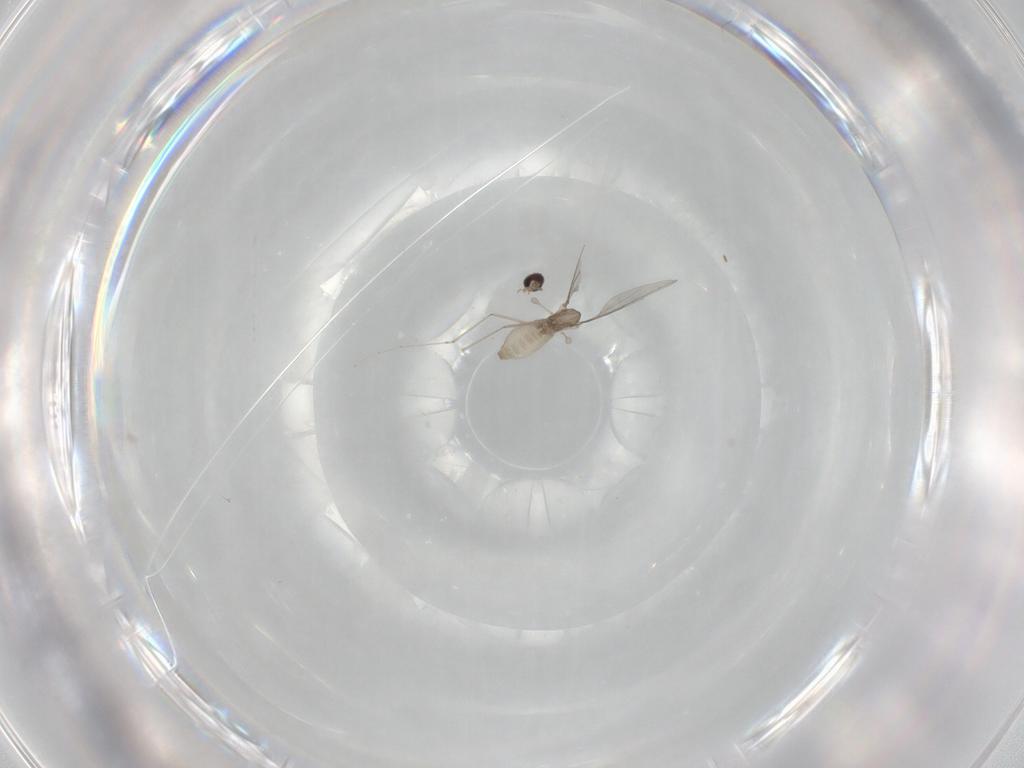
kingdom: Animalia
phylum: Arthropoda
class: Insecta
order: Diptera
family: Cecidomyiidae
